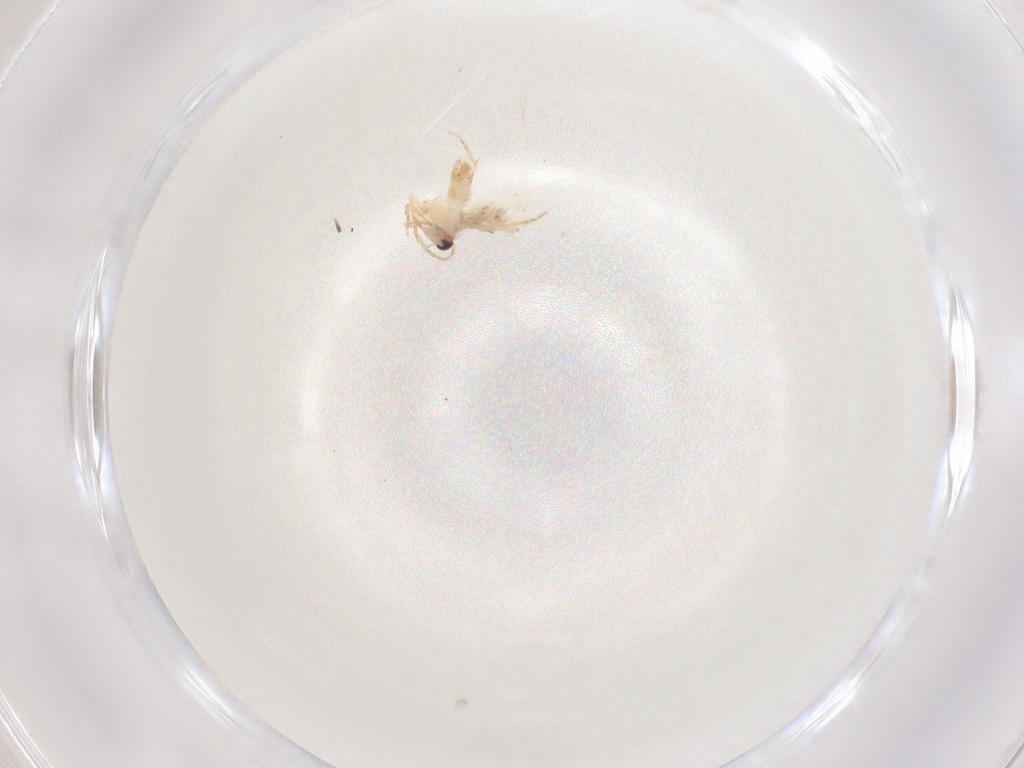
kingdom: Animalia
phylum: Arthropoda
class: Insecta
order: Lepidoptera
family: Nepticulidae
